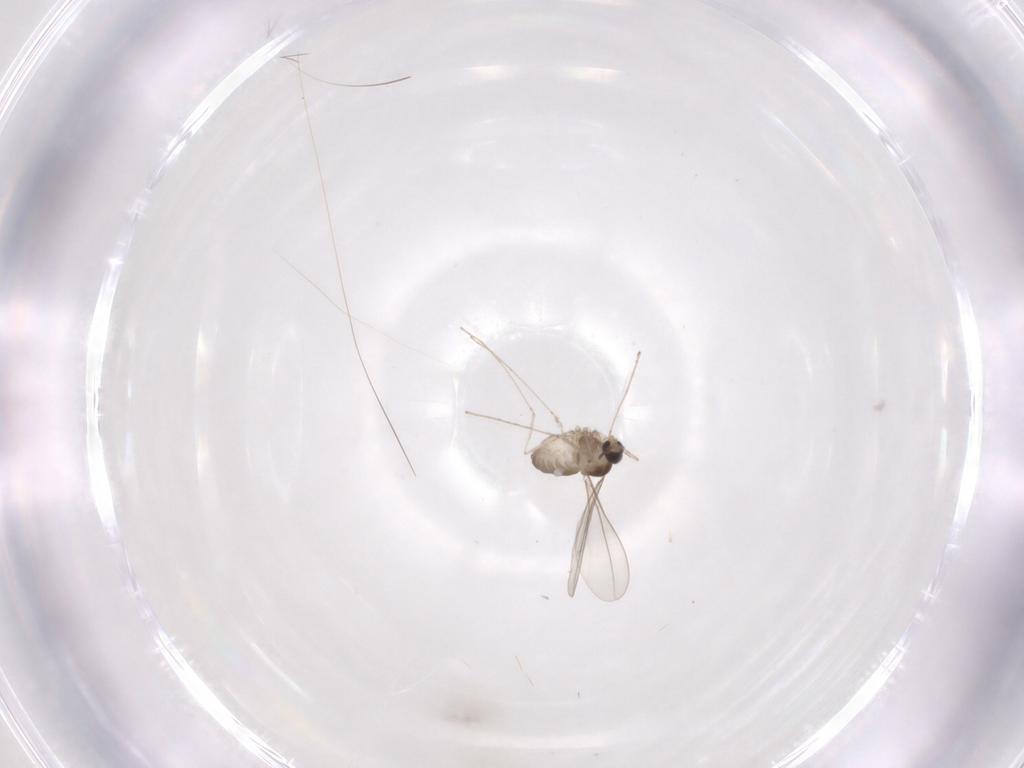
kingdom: Animalia
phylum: Arthropoda
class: Insecta
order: Diptera
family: Cecidomyiidae
